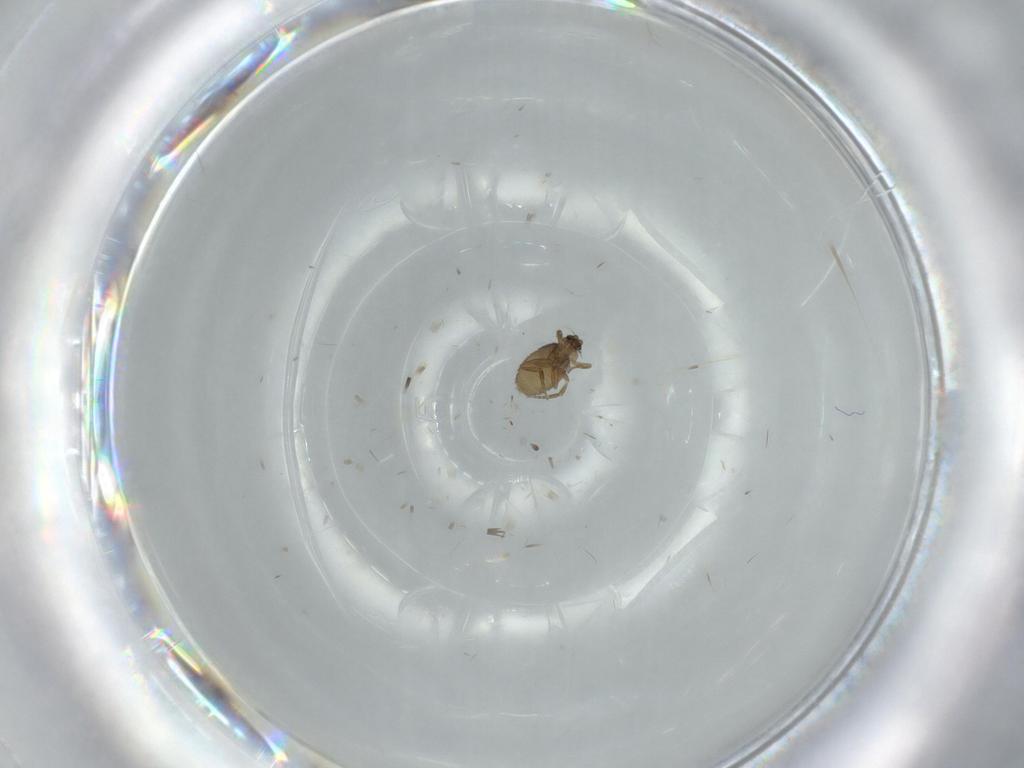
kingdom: Animalia
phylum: Arthropoda
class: Insecta
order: Diptera
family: Phoridae
